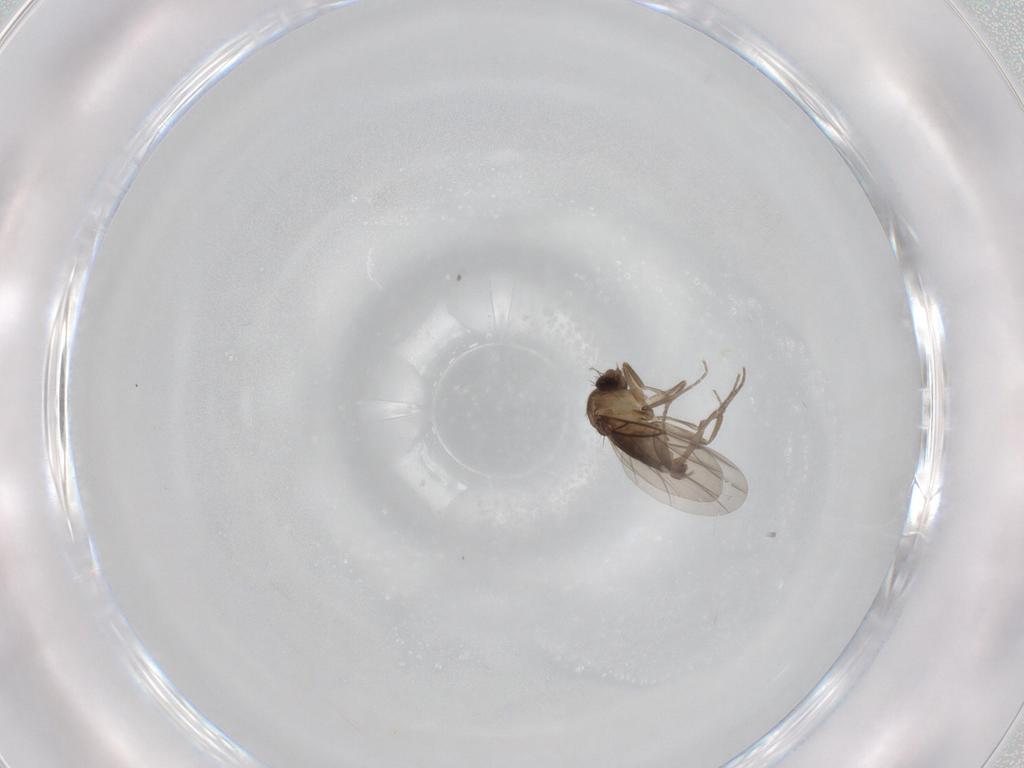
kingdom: Animalia
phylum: Arthropoda
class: Insecta
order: Diptera
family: Phoridae
